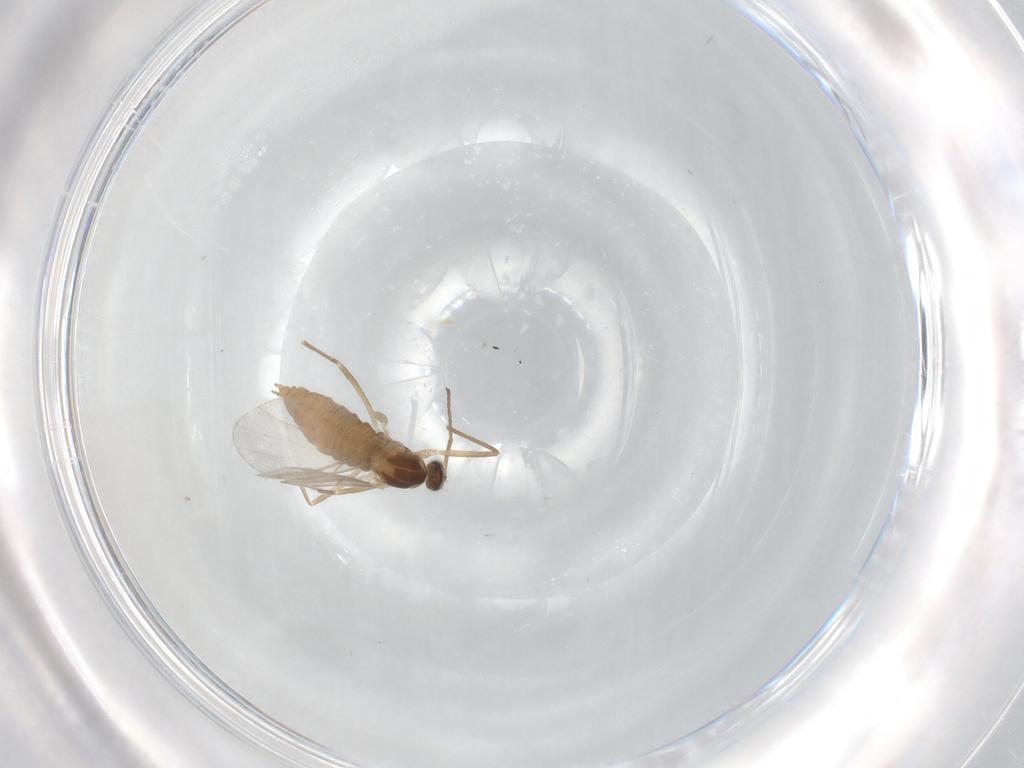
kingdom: Animalia
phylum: Arthropoda
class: Insecta
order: Diptera
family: Cecidomyiidae
